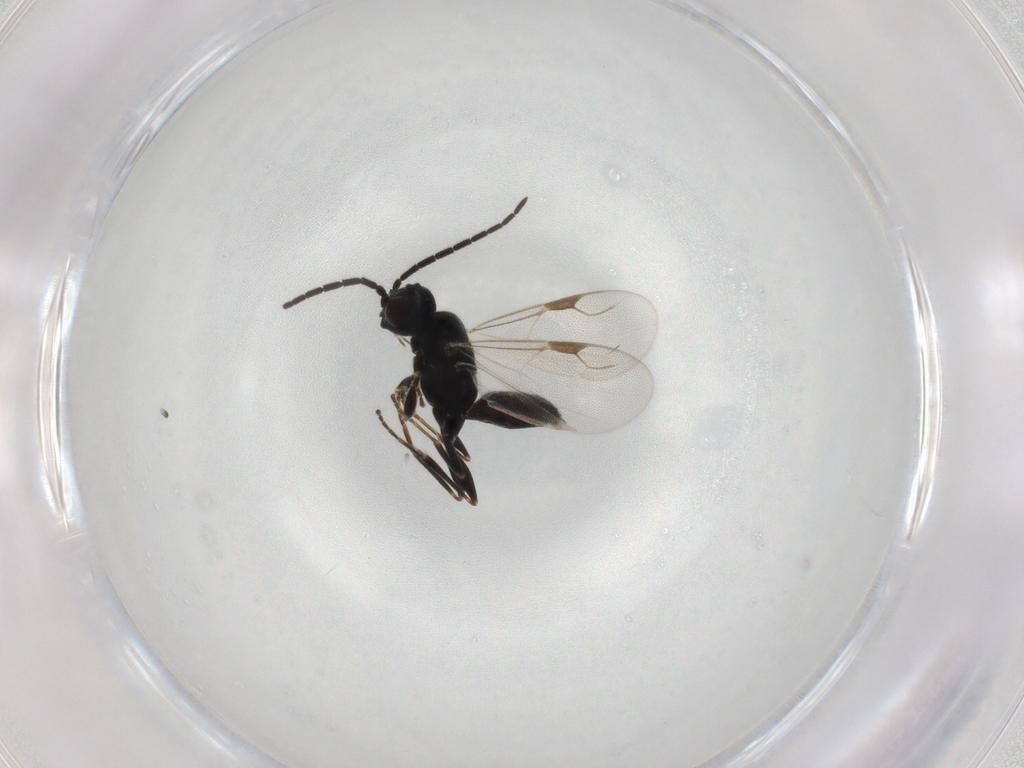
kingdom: Animalia
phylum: Arthropoda
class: Insecta
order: Hymenoptera
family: Dryinidae
